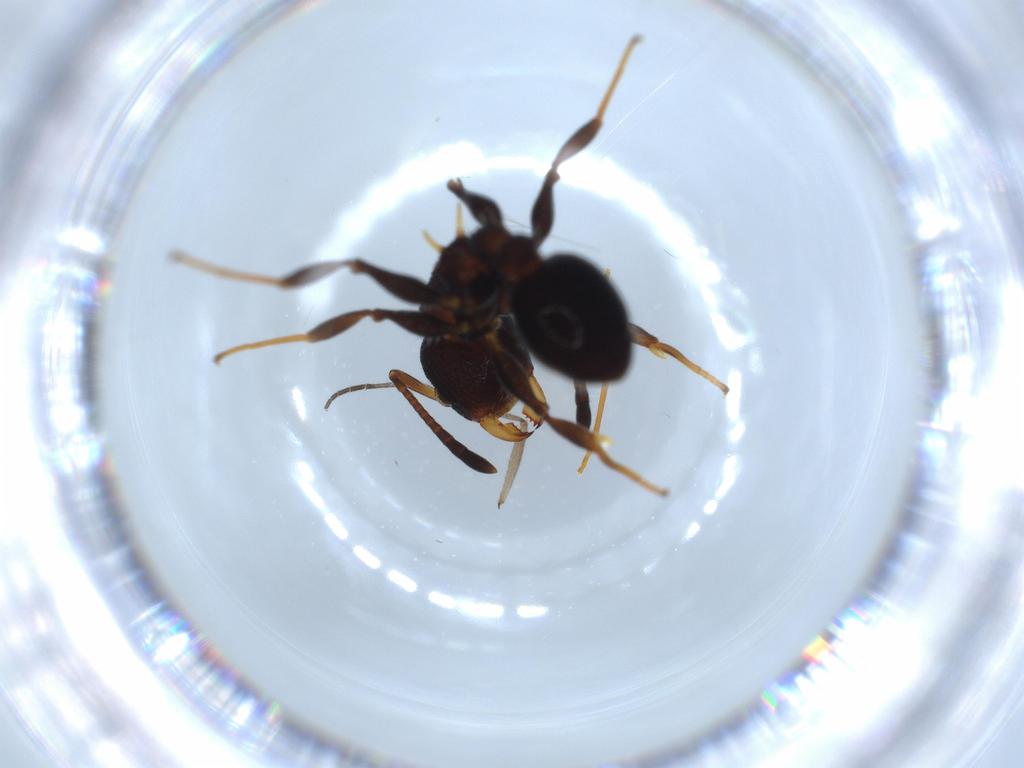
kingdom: Animalia
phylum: Arthropoda
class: Insecta
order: Hymenoptera
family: Formicidae
